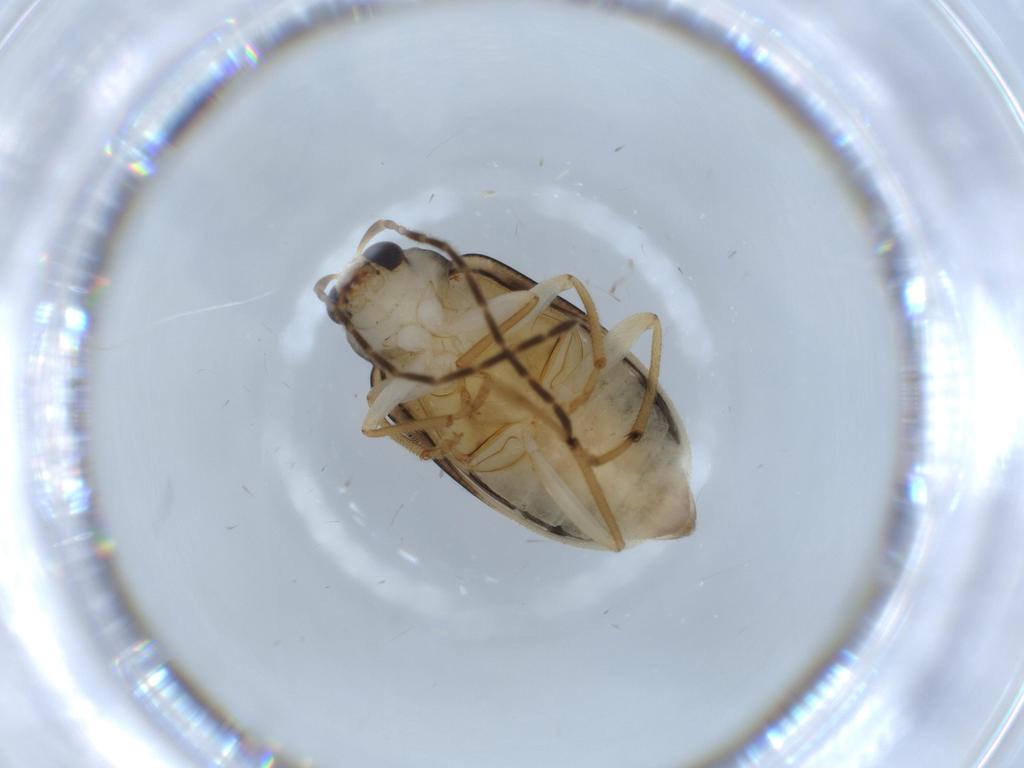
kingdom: Animalia
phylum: Arthropoda
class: Insecta
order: Coleoptera
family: Chrysomelidae
